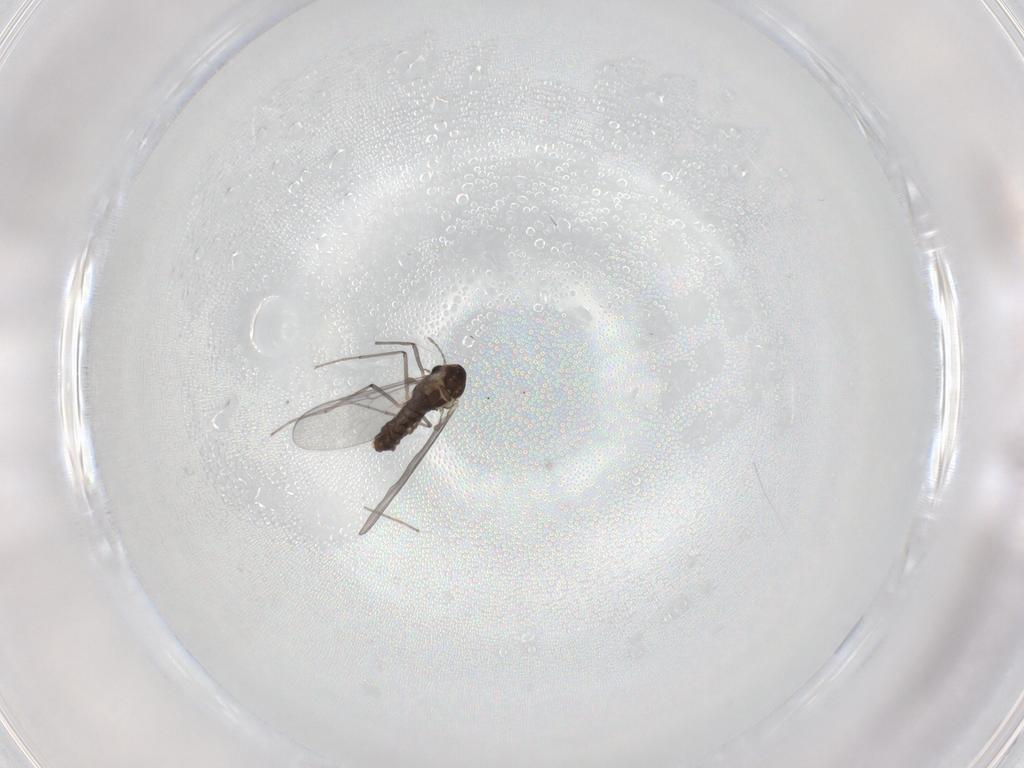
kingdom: Animalia
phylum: Arthropoda
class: Insecta
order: Diptera
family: Chironomidae
